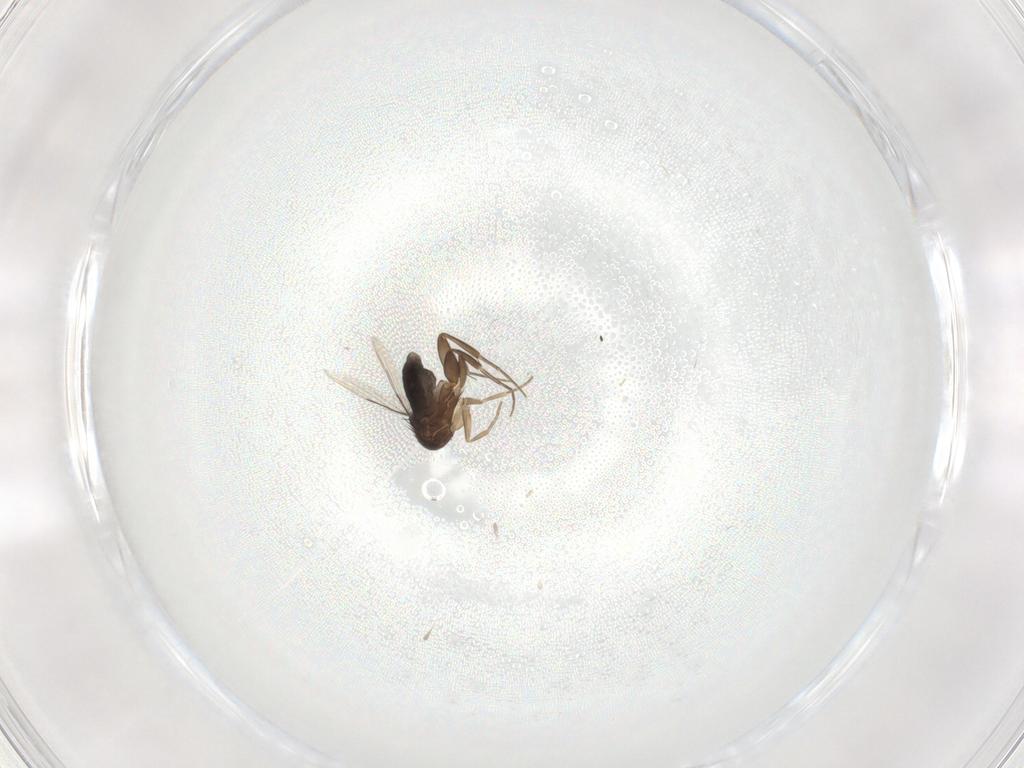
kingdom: Animalia
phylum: Arthropoda
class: Insecta
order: Diptera
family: Phoridae
